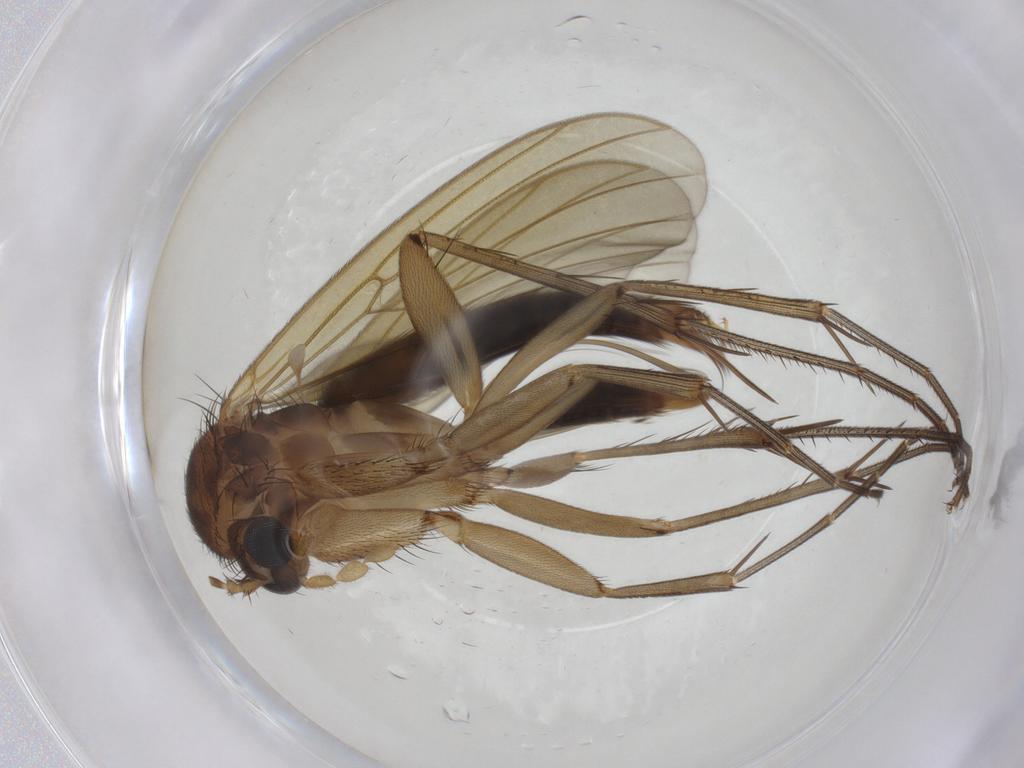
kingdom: Animalia
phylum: Arthropoda
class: Insecta
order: Diptera
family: Mycetophilidae
